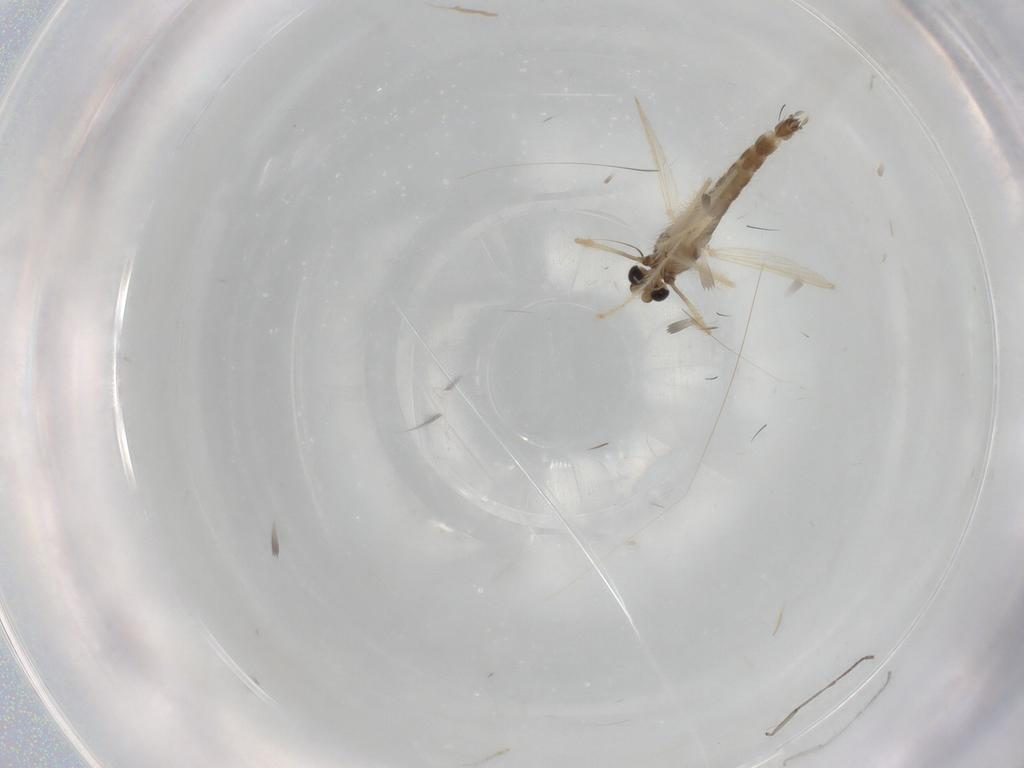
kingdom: Animalia
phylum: Arthropoda
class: Insecta
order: Diptera
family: Chironomidae
